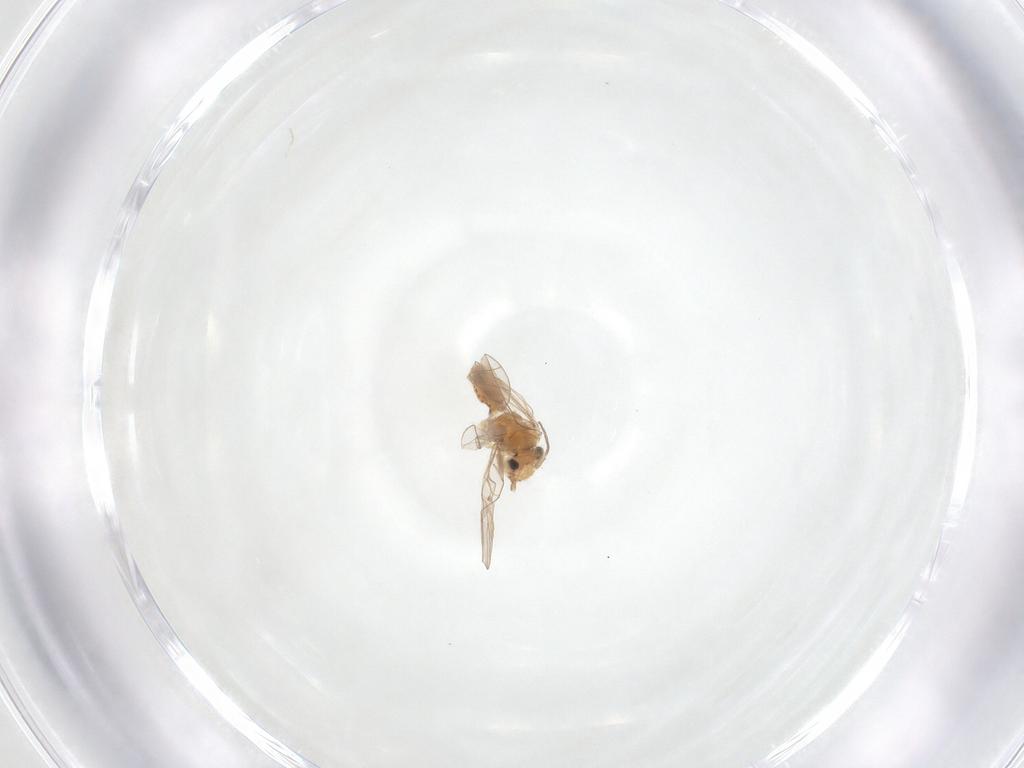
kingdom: Animalia
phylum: Arthropoda
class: Insecta
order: Psocodea
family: Ectopsocidae
